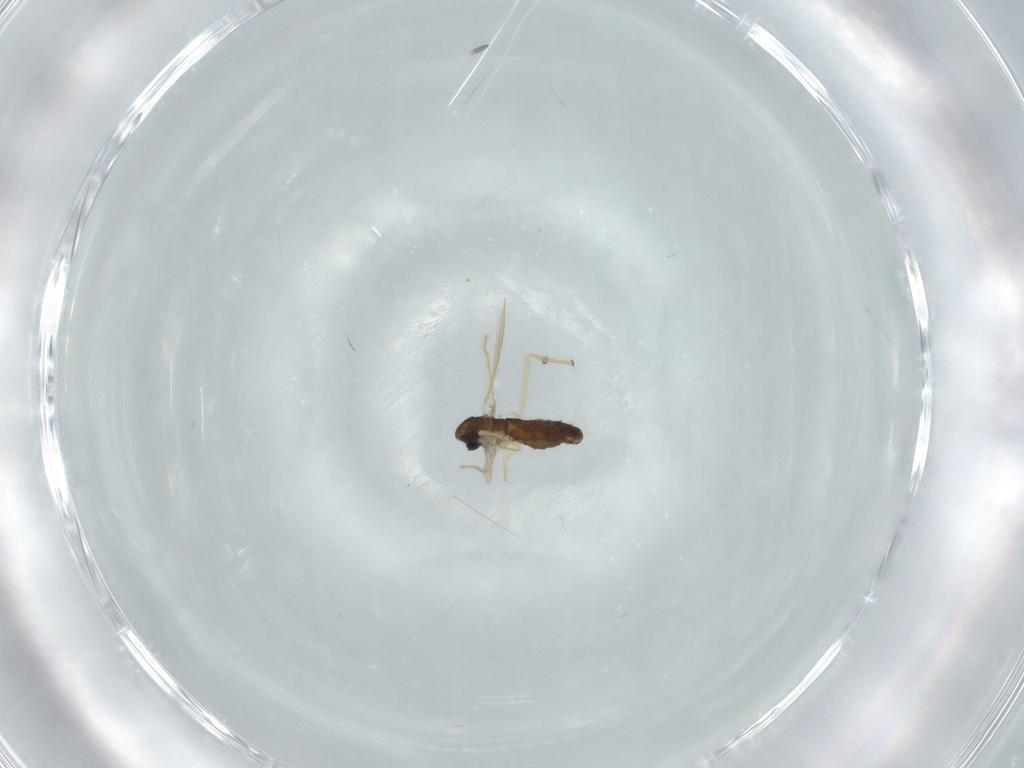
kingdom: Animalia
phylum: Arthropoda
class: Insecta
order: Diptera
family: Chironomidae
